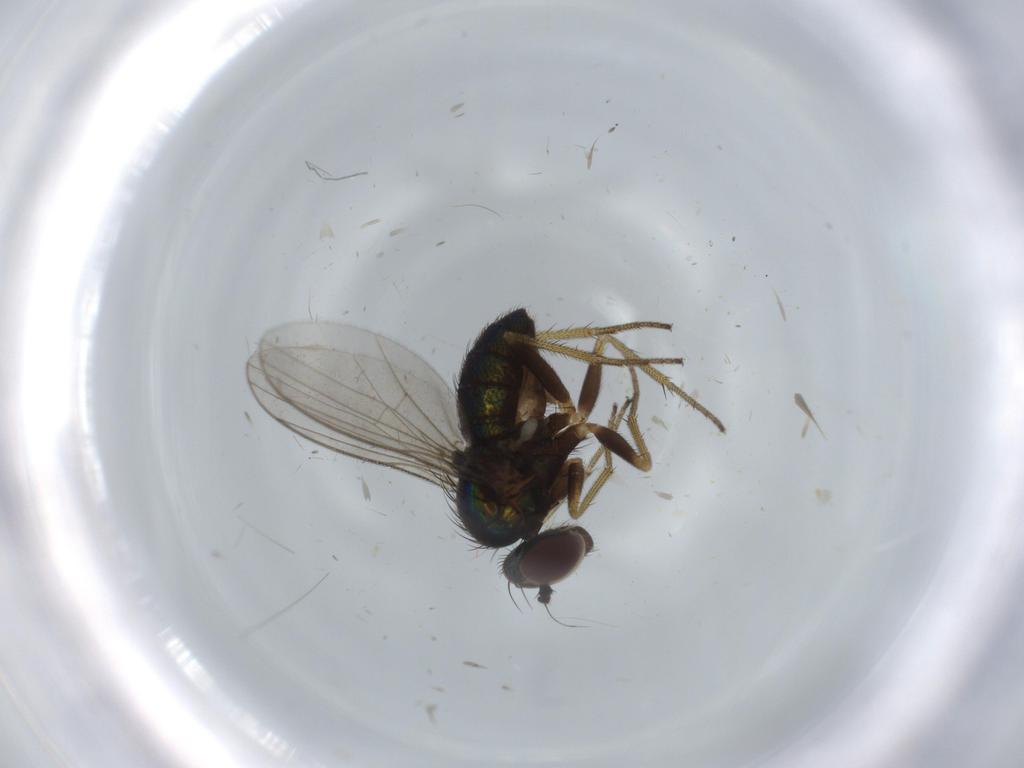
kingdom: Animalia
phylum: Arthropoda
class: Insecta
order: Diptera
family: Dolichopodidae
